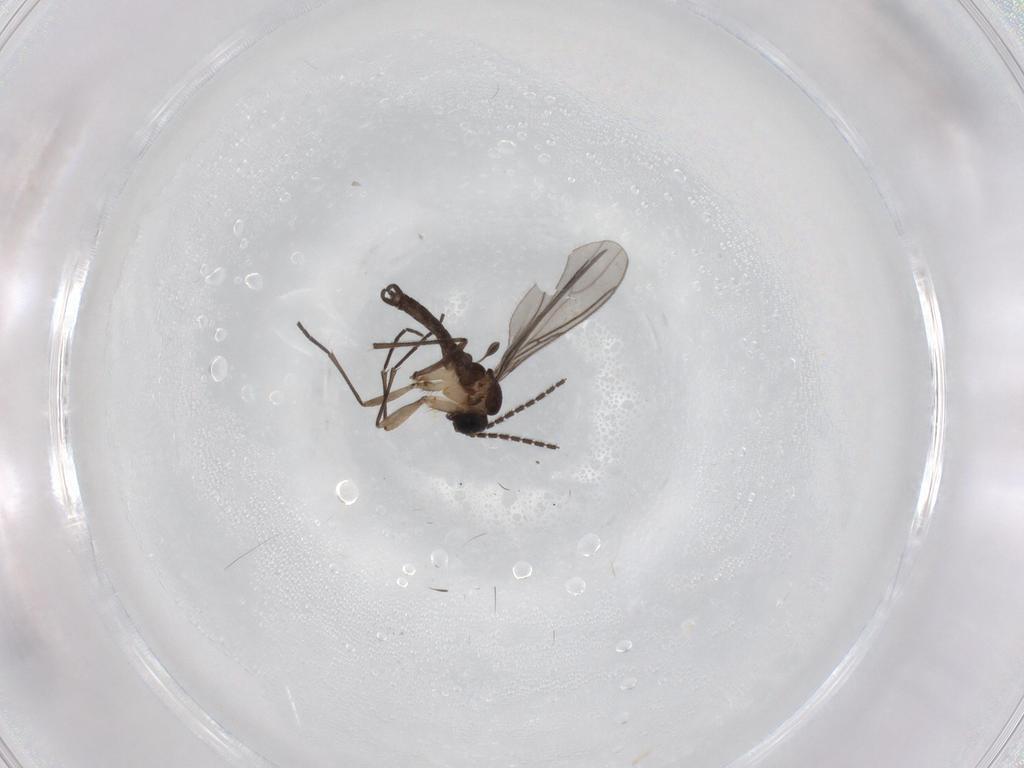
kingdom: Animalia
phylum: Arthropoda
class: Insecta
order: Diptera
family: Sciaridae
